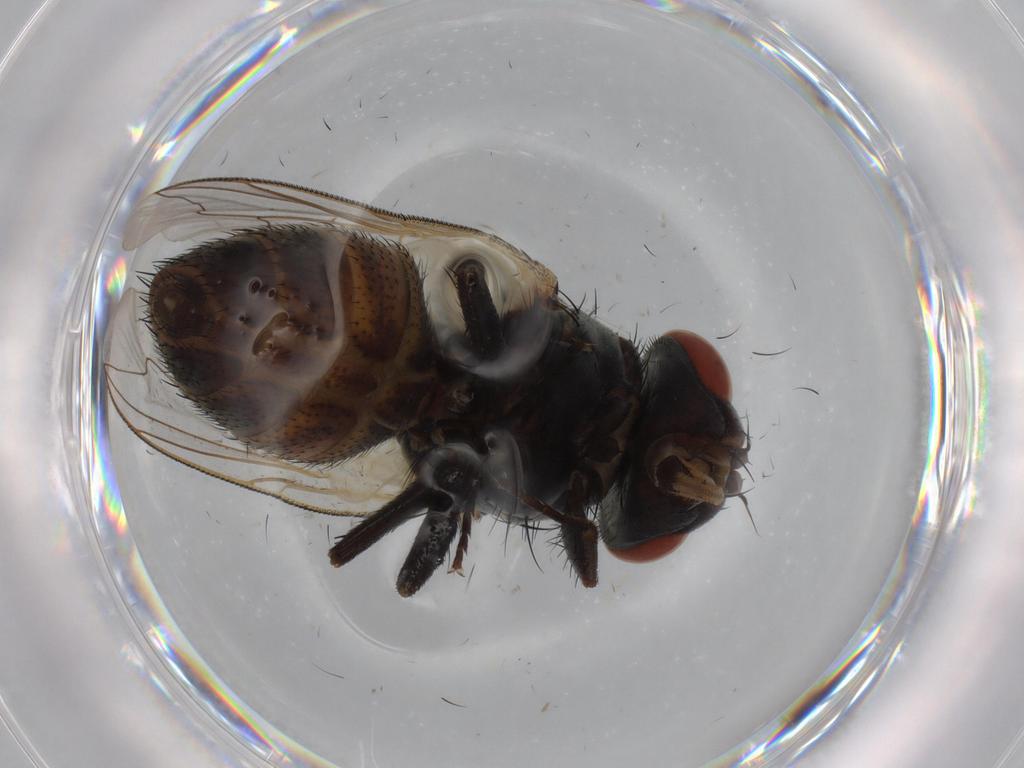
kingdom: Animalia
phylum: Arthropoda
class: Insecta
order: Diptera
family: Sarcophagidae
